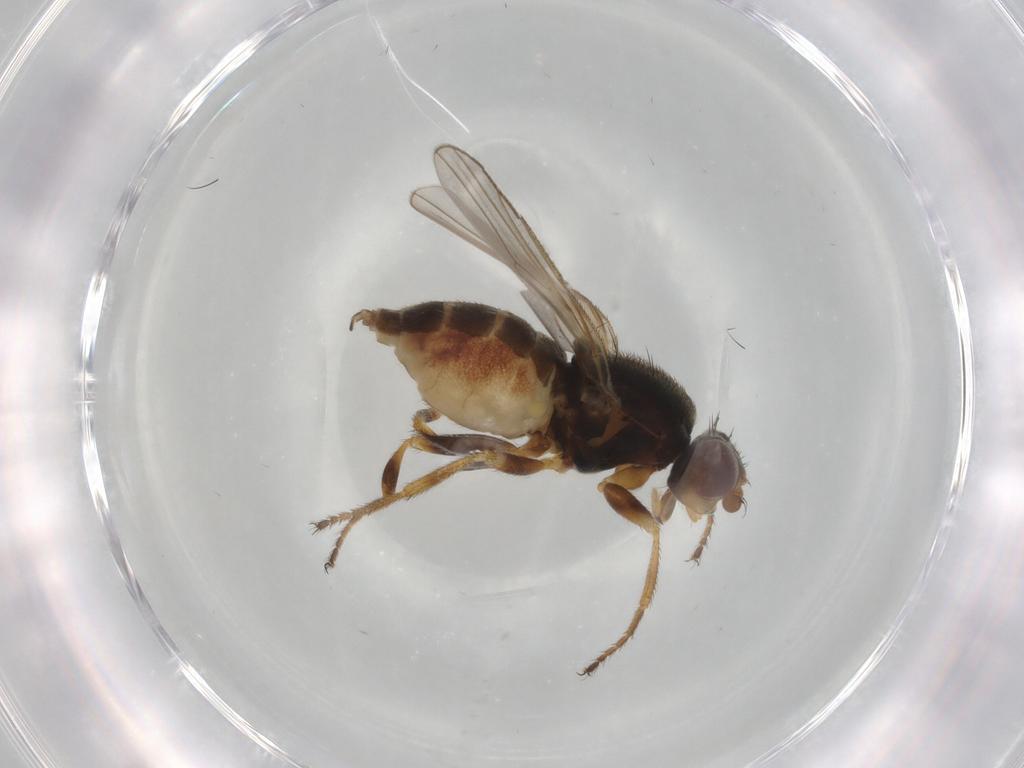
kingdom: Animalia
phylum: Arthropoda
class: Insecta
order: Diptera
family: Chloropidae
